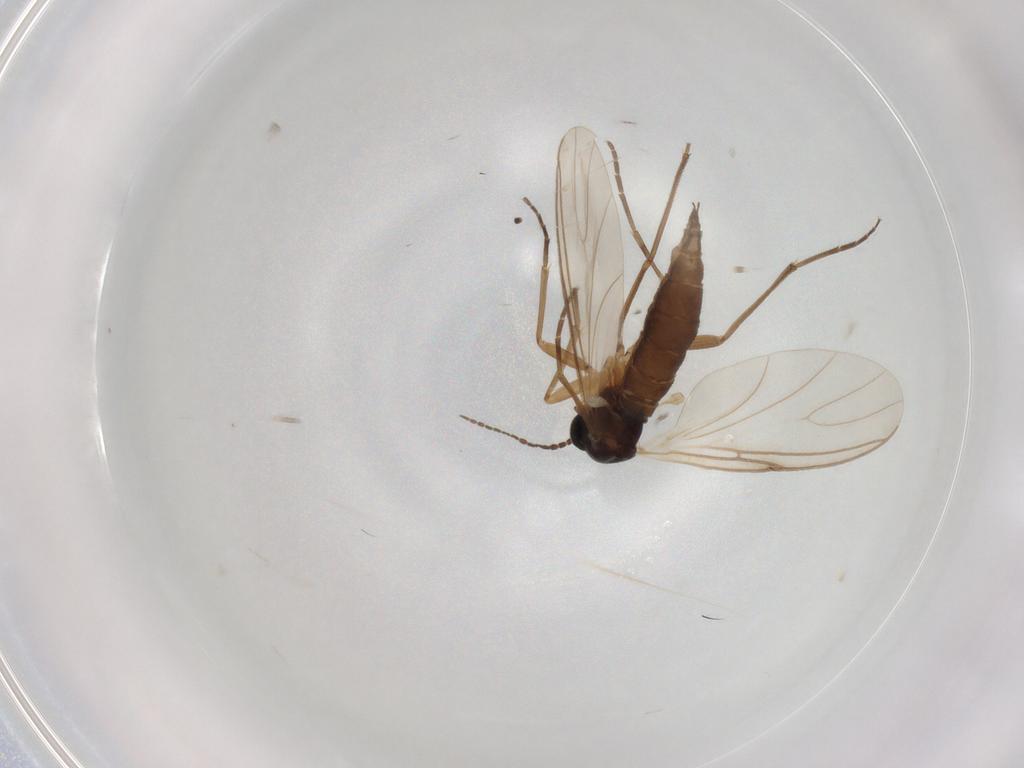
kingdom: Animalia
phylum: Arthropoda
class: Insecta
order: Diptera
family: Sciaridae
